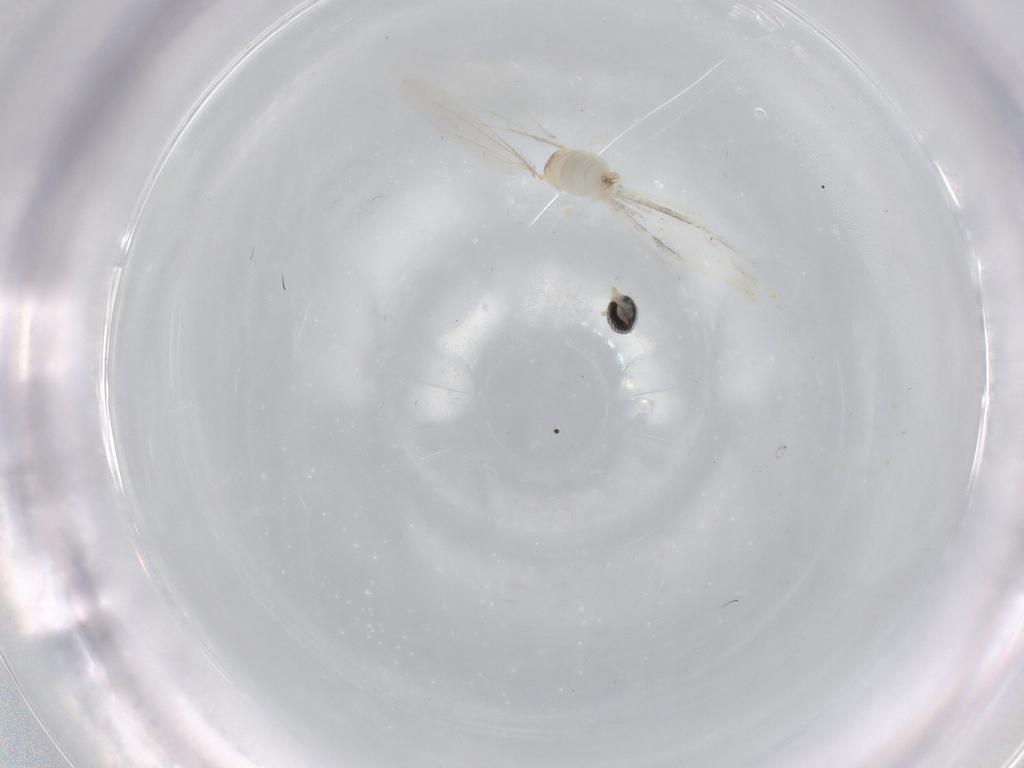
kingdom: Animalia
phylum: Arthropoda
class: Insecta
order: Diptera
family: Cecidomyiidae
